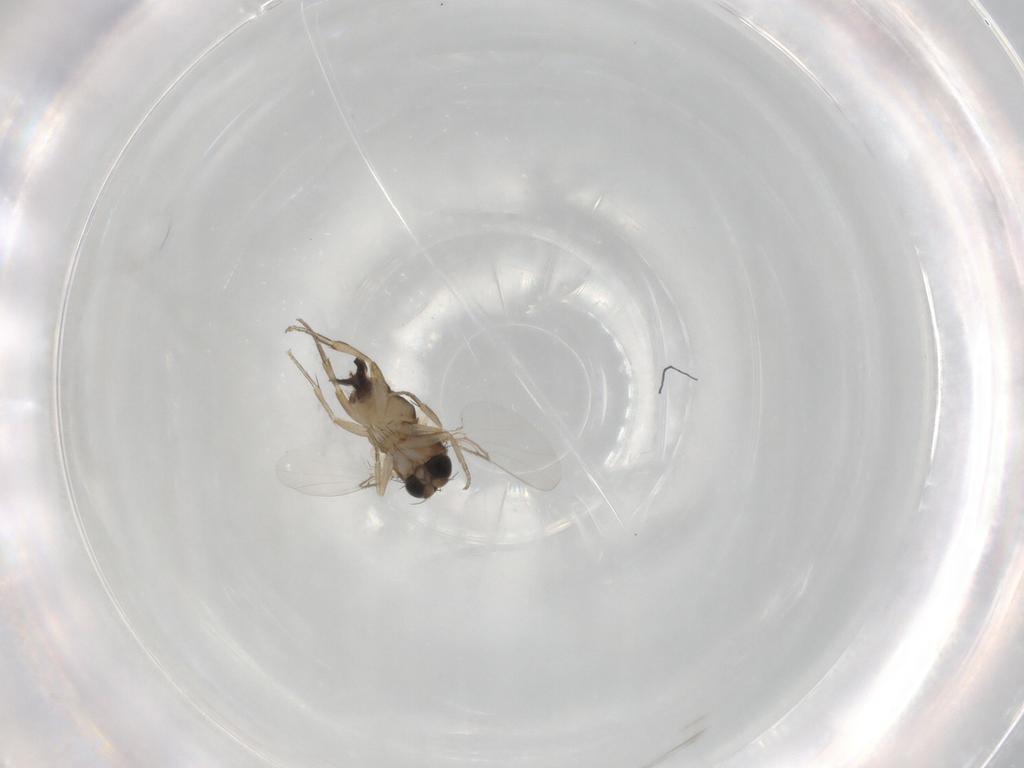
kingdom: Animalia
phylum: Arthropoda
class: Insecta
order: Diptera
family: Phoridae
